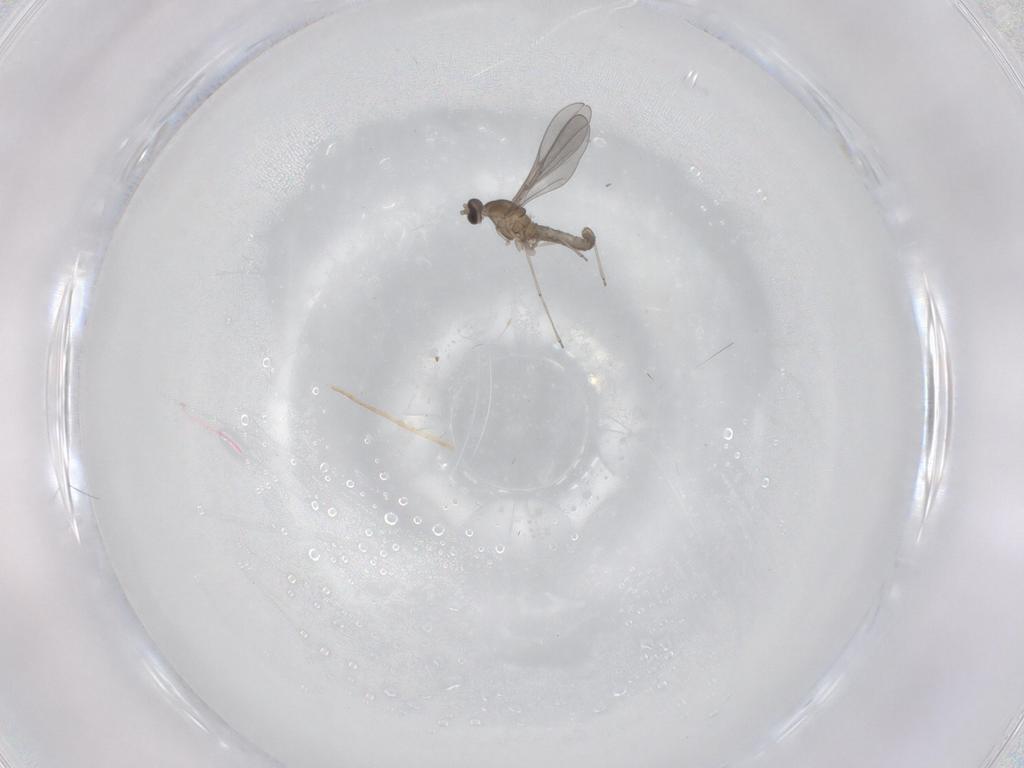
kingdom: Animalia
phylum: Arthropoda
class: Insecta
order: Diptera
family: Cecidomyiidae
